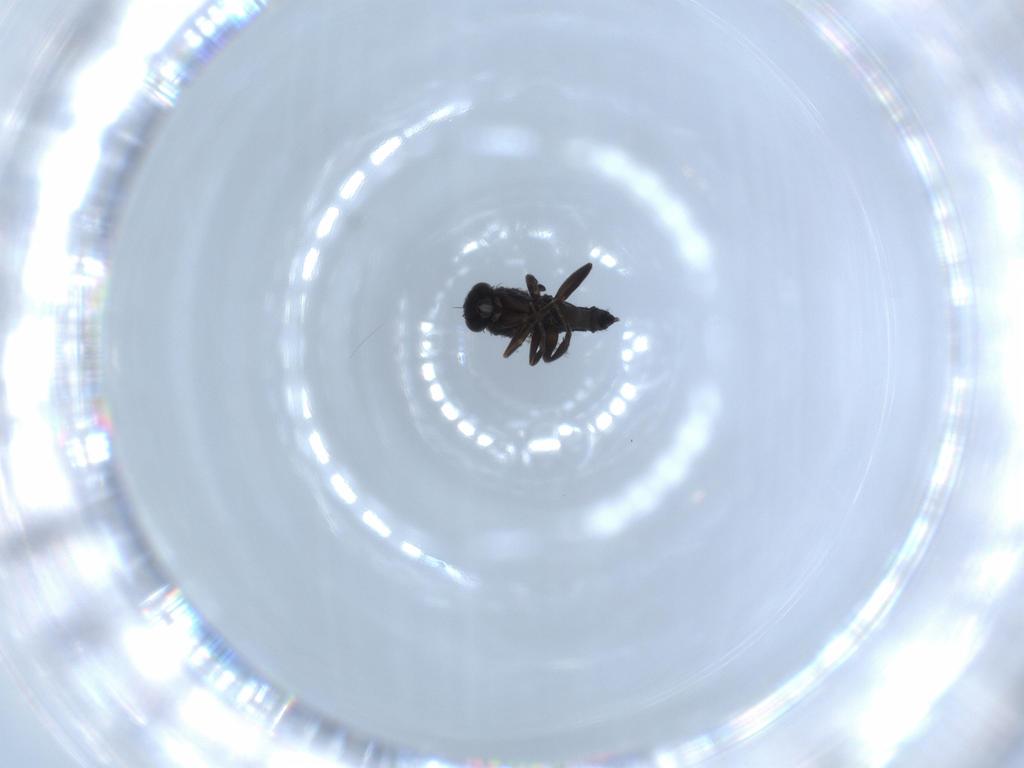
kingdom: Animalia
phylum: Arthropoda
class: Insecta
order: Diptera
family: Phoridae
